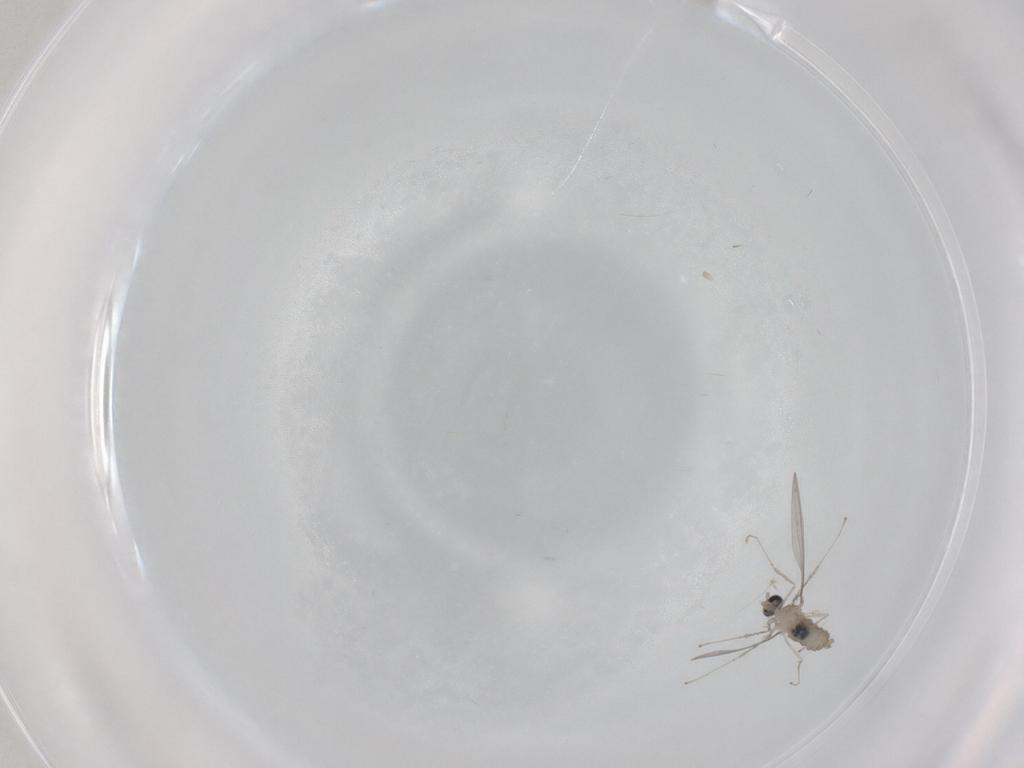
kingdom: Animalia
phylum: Arthropoda
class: Insecta
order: Diptera
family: Cecidomyiidae
